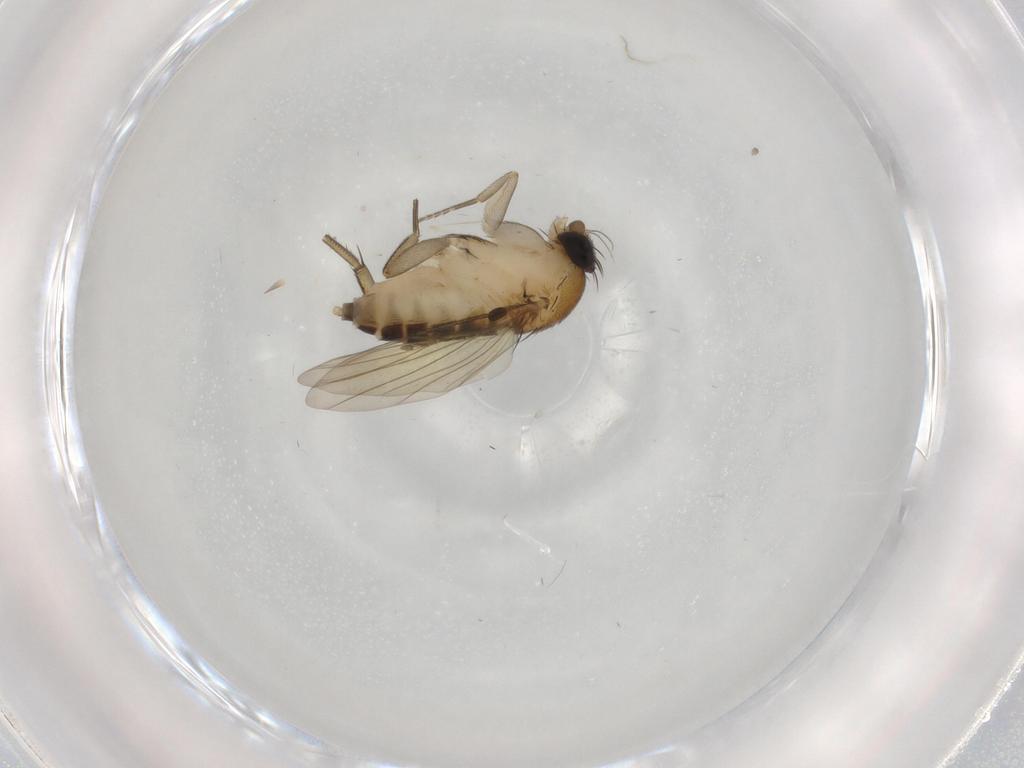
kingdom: Animalia
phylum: Arthropoda
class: Insecta
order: Diptera
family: Phoridae
